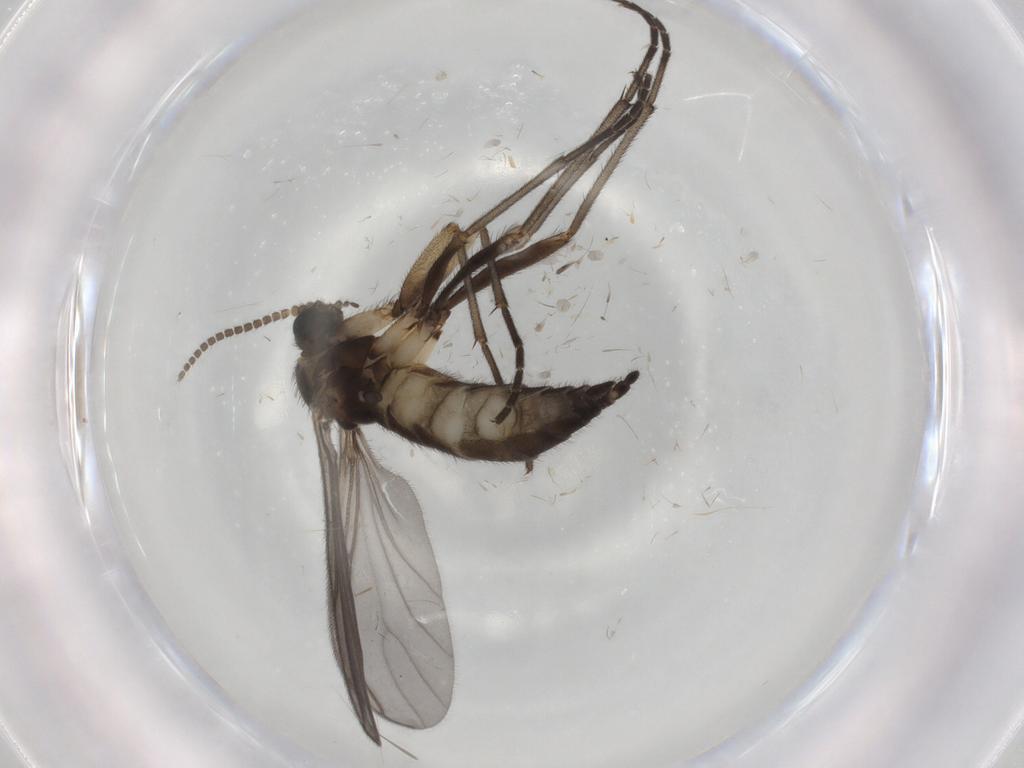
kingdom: Animalia
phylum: Arthropoda
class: Insecta
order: Diptera
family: Sciaridae
